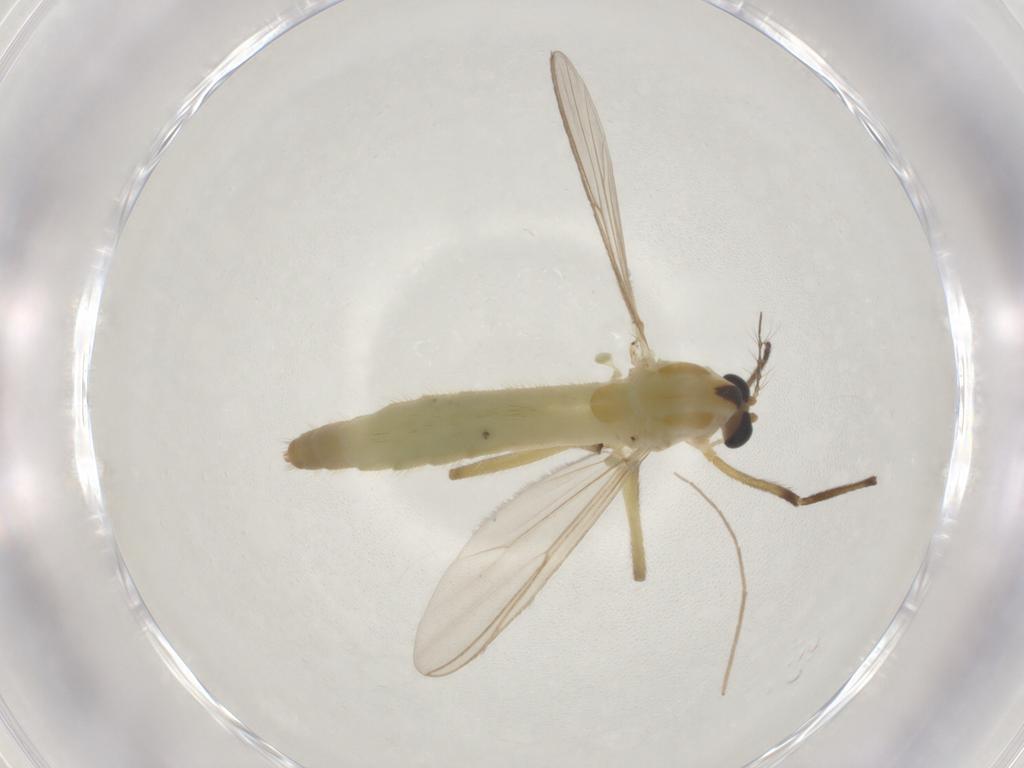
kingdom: Animalia
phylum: Arthropoda
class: Insecta
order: Diptera
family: Chironomidae
